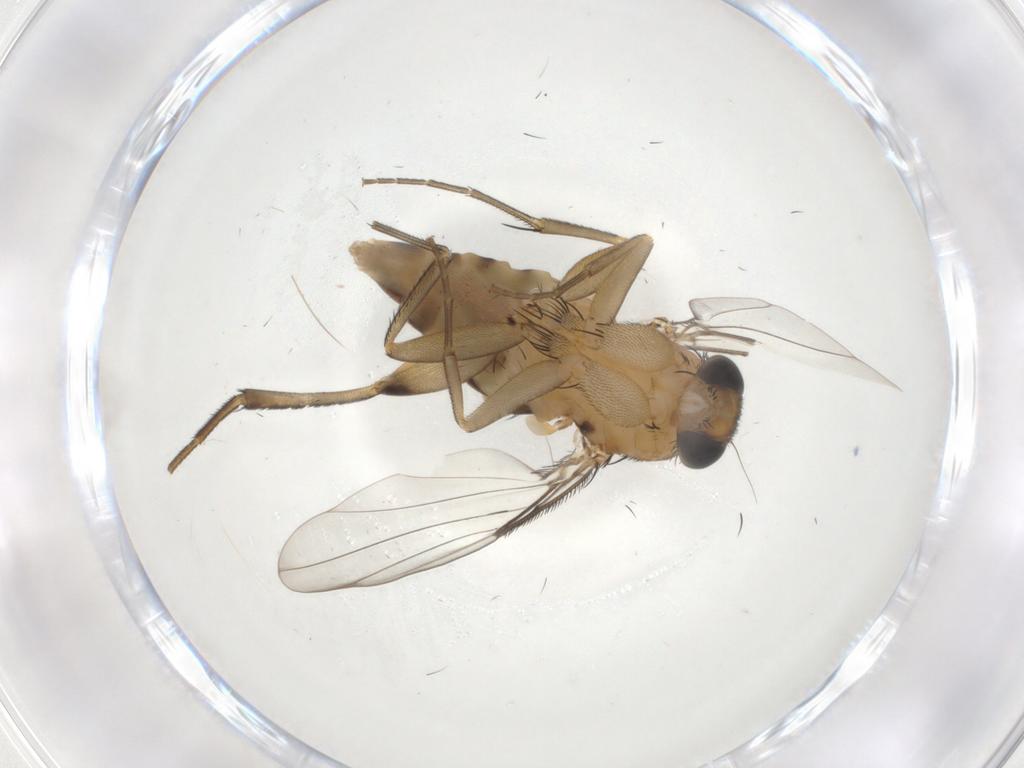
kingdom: Animalia
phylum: Arthropoda
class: Insecta
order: Diptera
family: Phoridae
